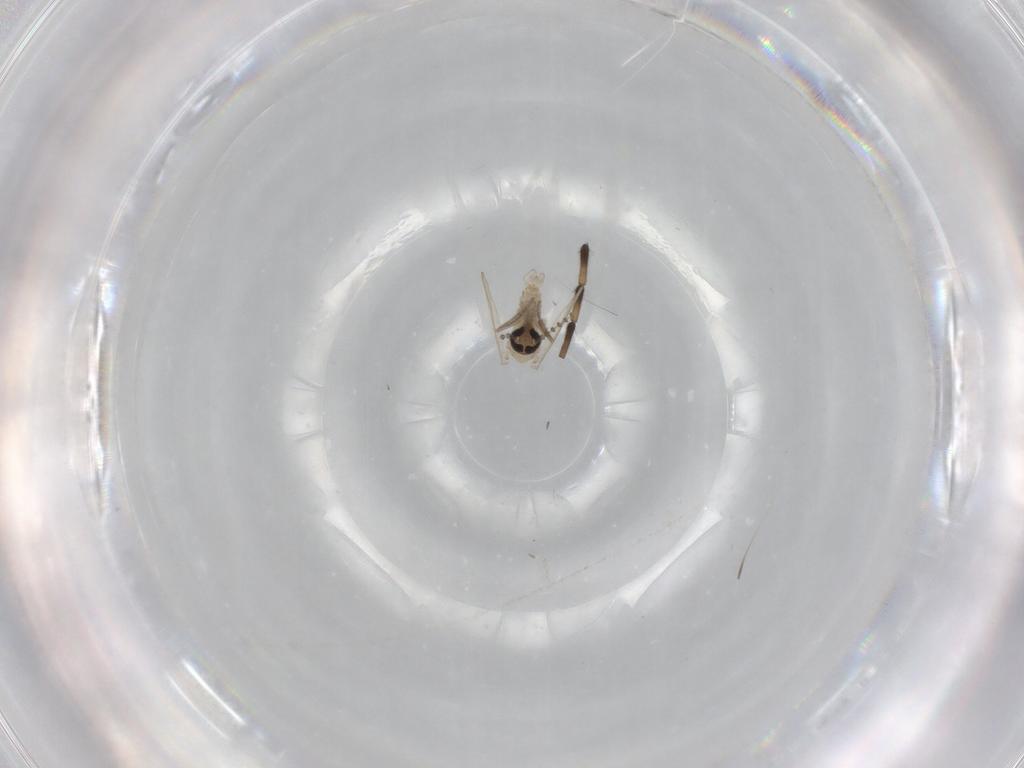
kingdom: Animalia
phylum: Arthropoda
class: Insecta
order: Diptera
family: Psychodidae
